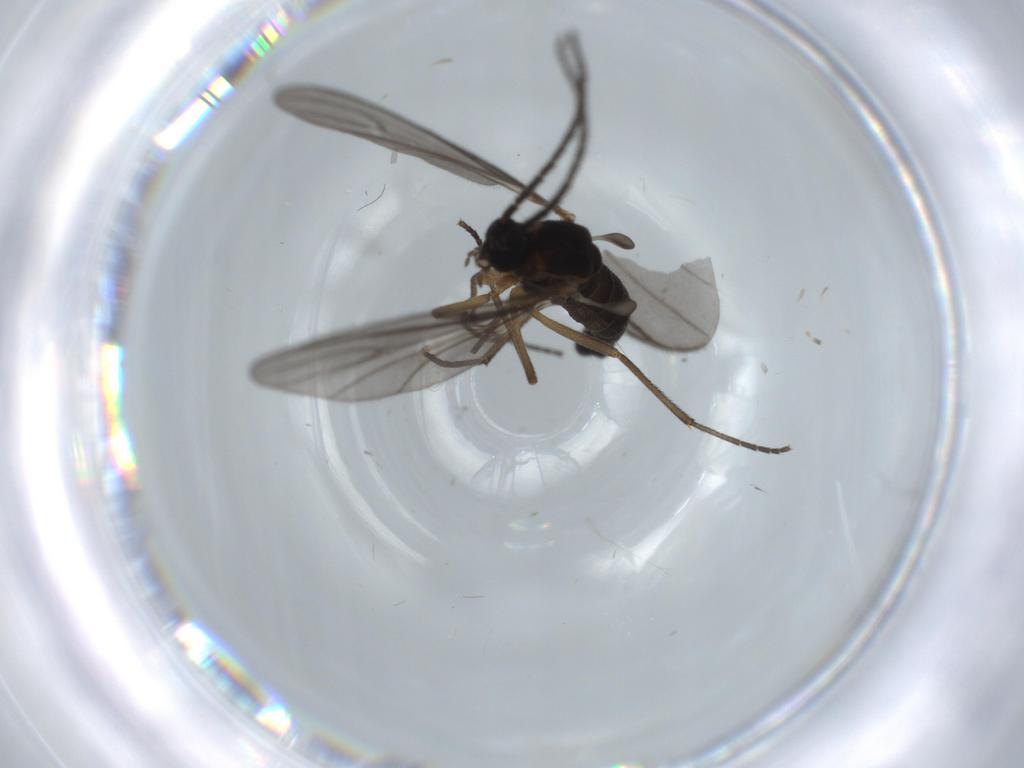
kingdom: Animalia
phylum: Arthropoda
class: Insecta
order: Diptera
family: Sciaridae
